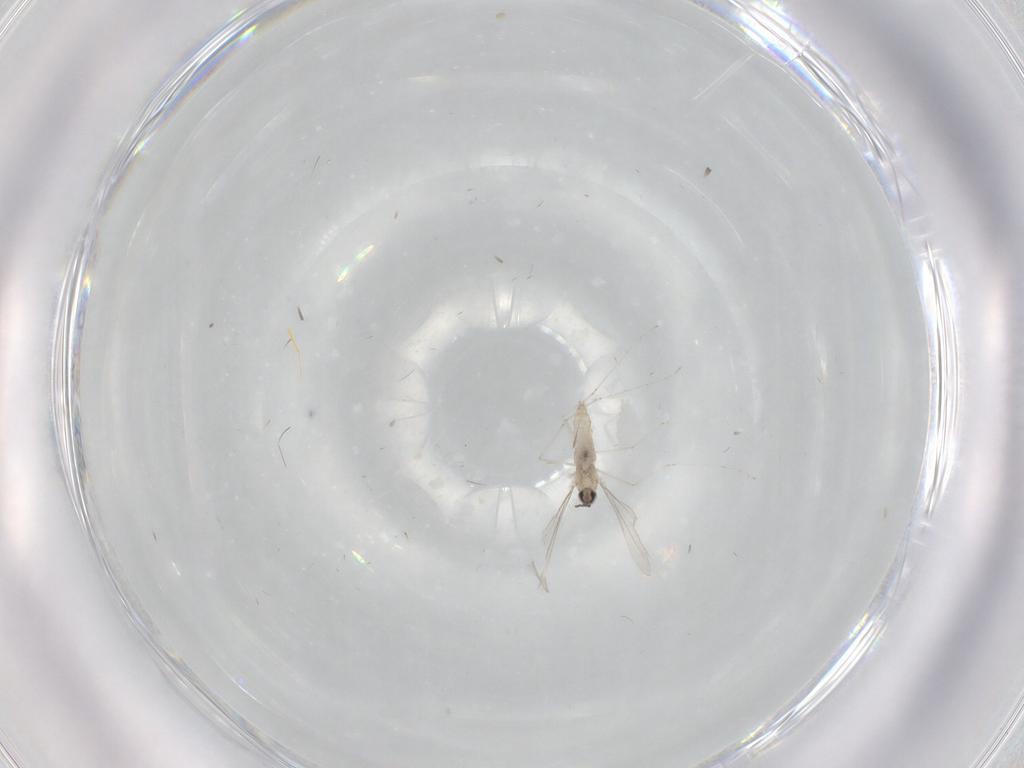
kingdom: Animalia
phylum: Arthropoda
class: Insecta
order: Diptera
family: Cecidomyiidae
